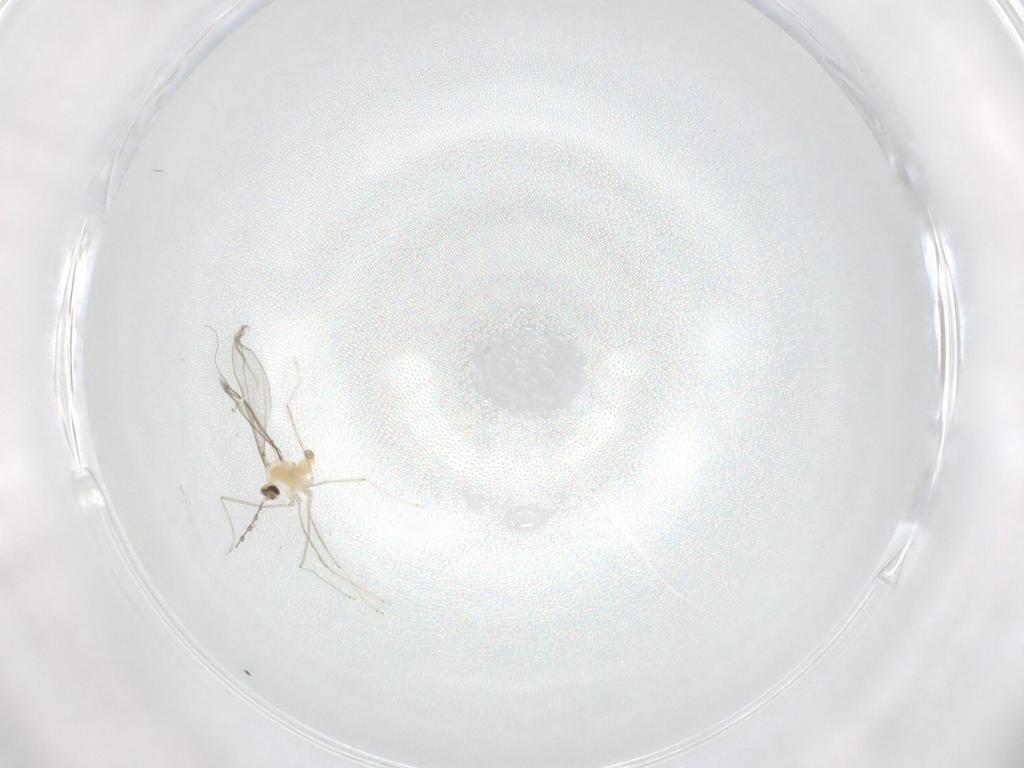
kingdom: Animalia
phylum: Arthropoda
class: Insecta
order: Diptera
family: Cecidomyiidae
